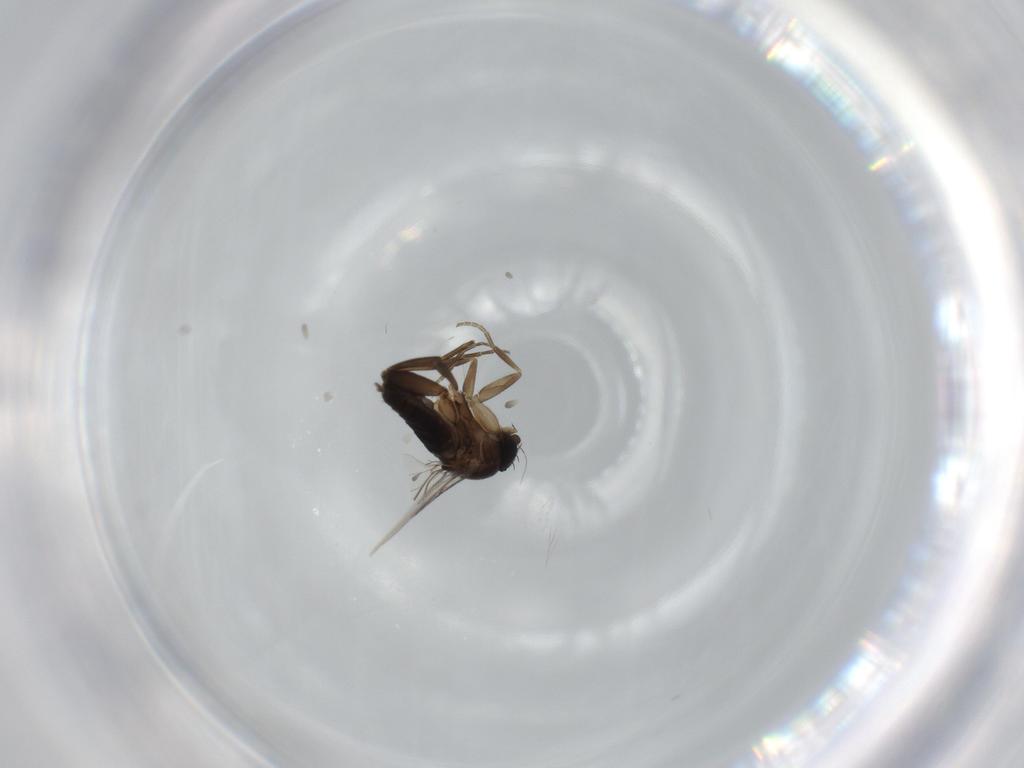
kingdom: Animalia
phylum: Arthropoda
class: Insecta
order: Diptera
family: Phoridae
